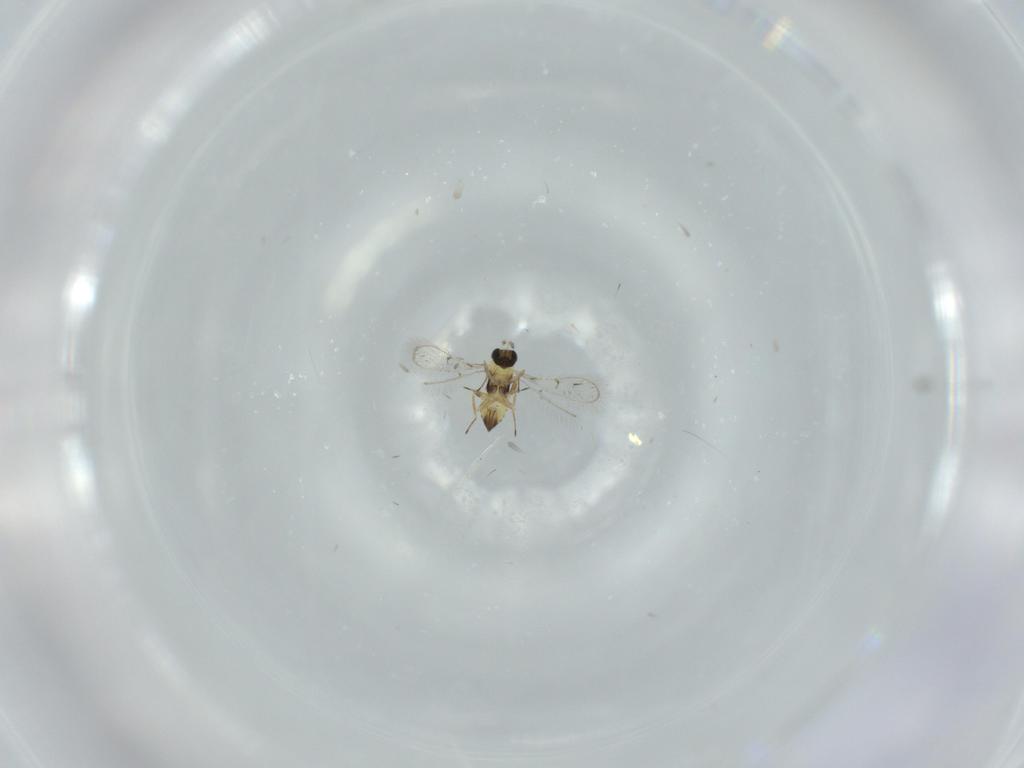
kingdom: Animalia
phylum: Arthropoda
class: Insecta
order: Hymenoptera
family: Trichogrammatidae
